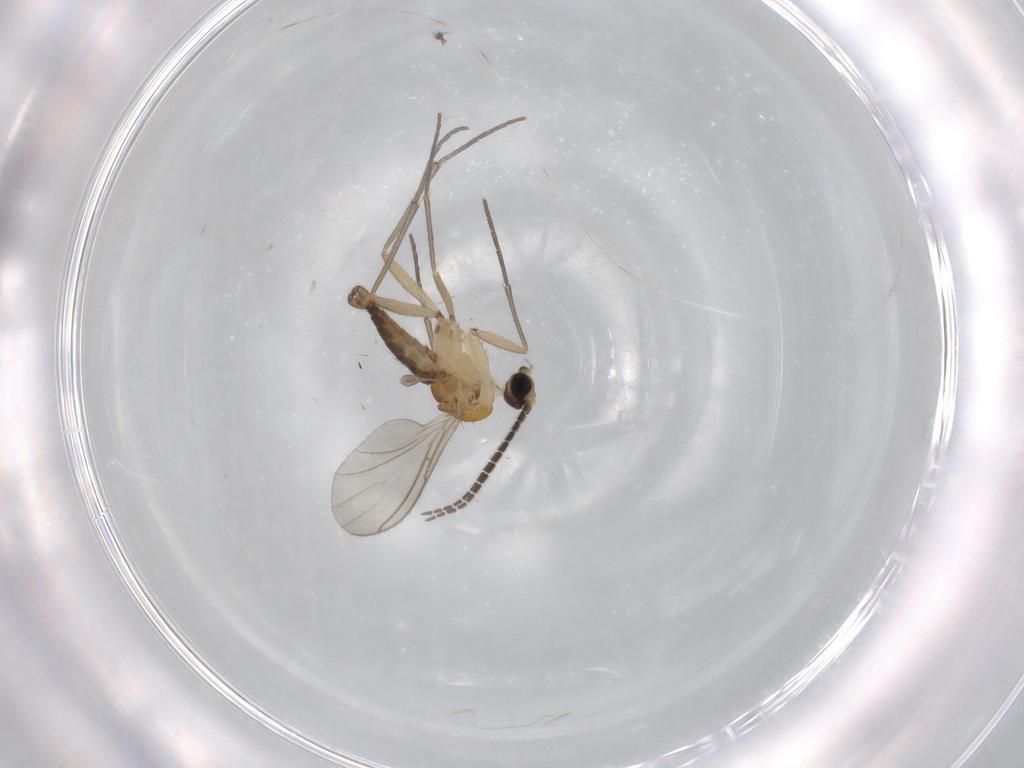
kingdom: Animalia
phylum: Arthropoda
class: Insecta
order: Diptera
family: Sciaridae
